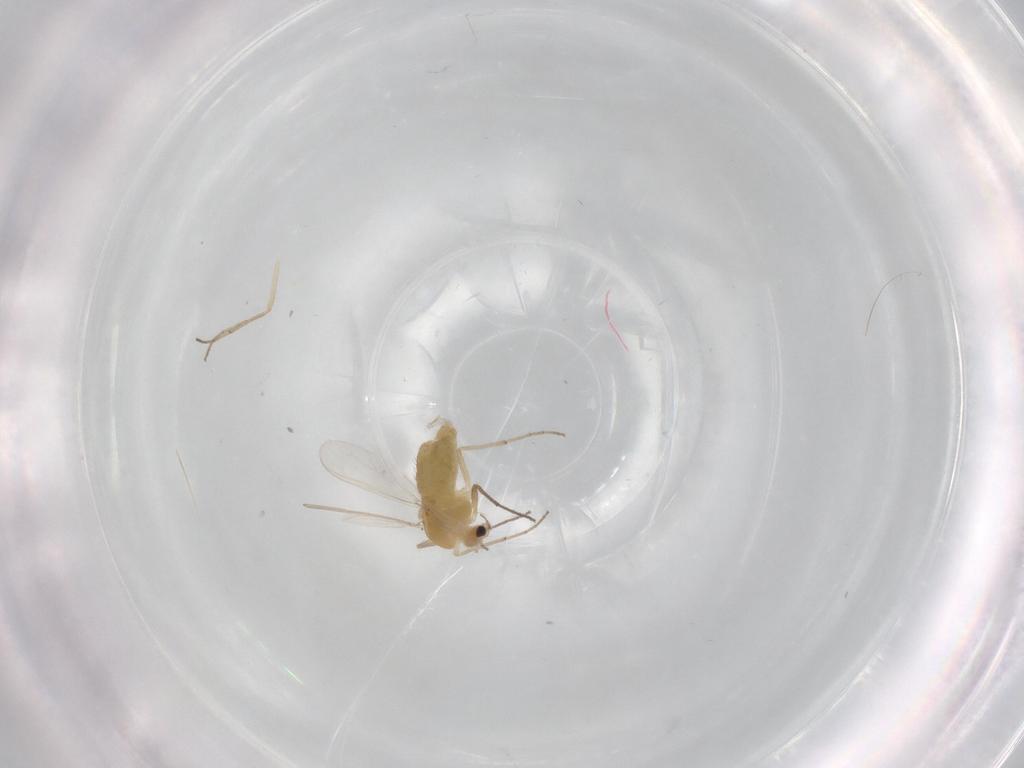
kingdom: Animalia
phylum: Arthropoda
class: Insecta
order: Diptera
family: Chironomidae
